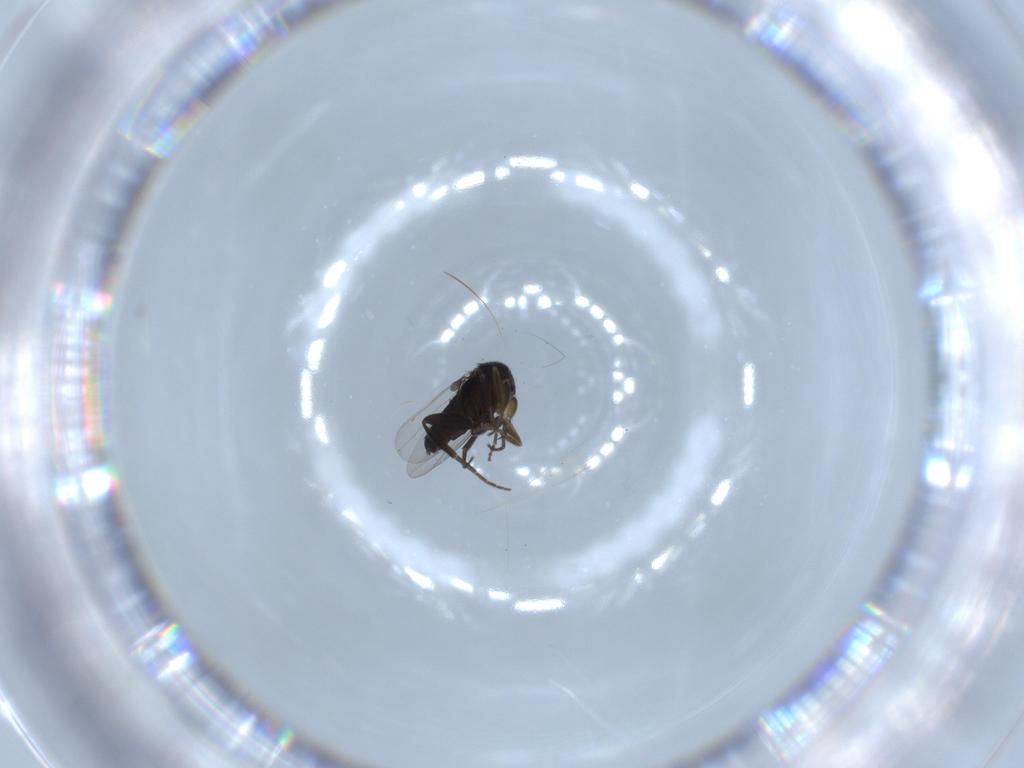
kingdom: Animalia
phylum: Arthropoda
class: Insecta
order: Diptera
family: Phoridae
